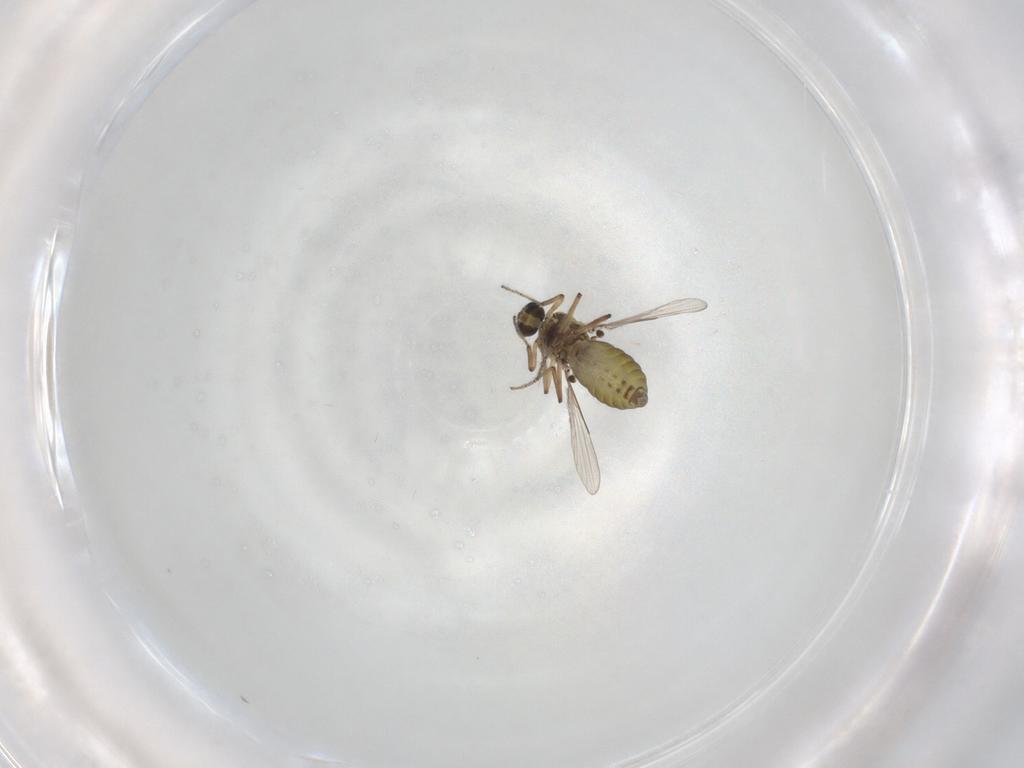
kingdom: Animalia
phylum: Arthropoda
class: Insecta
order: Diptera
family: Ceratopogonidae
